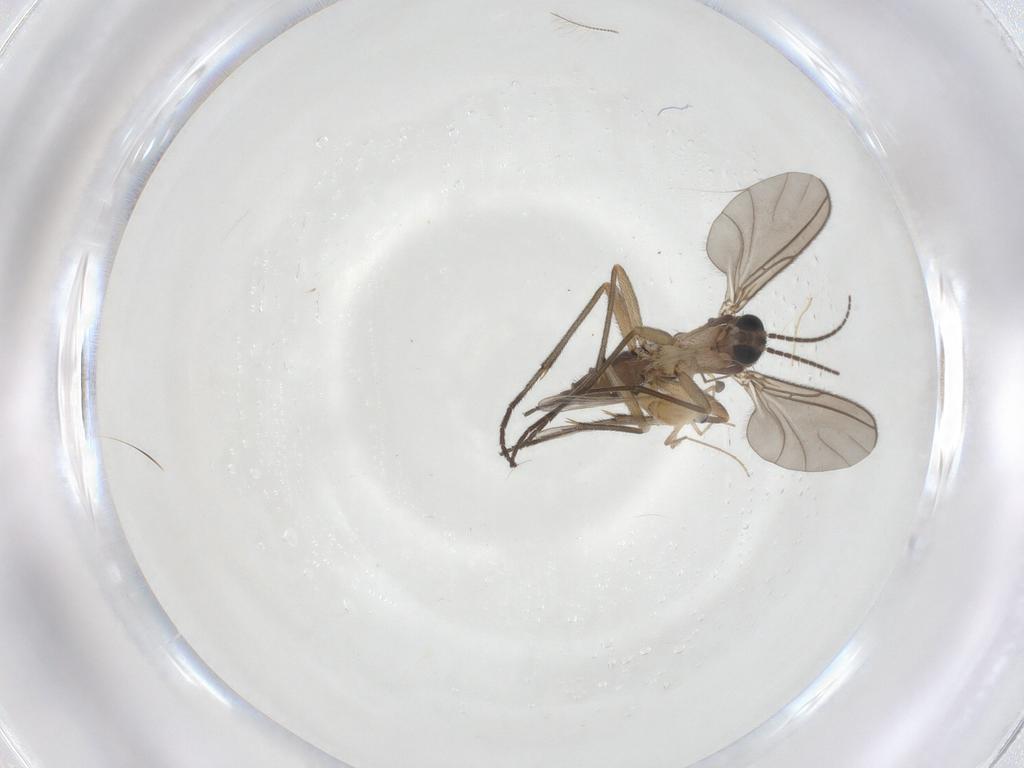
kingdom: Animalia
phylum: Arthropoda
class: Insecta
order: Diptera
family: Sciaridae
